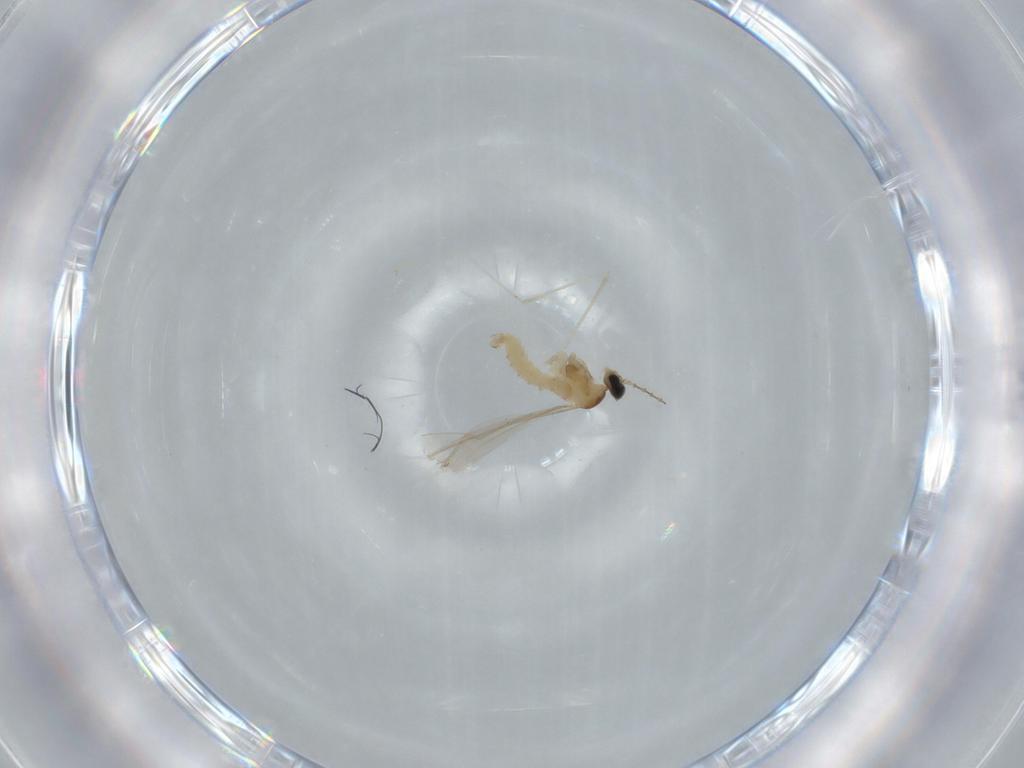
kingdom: Animalia
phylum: Arthropoda
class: Insecta
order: Diptera
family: Cecidomyiidae
